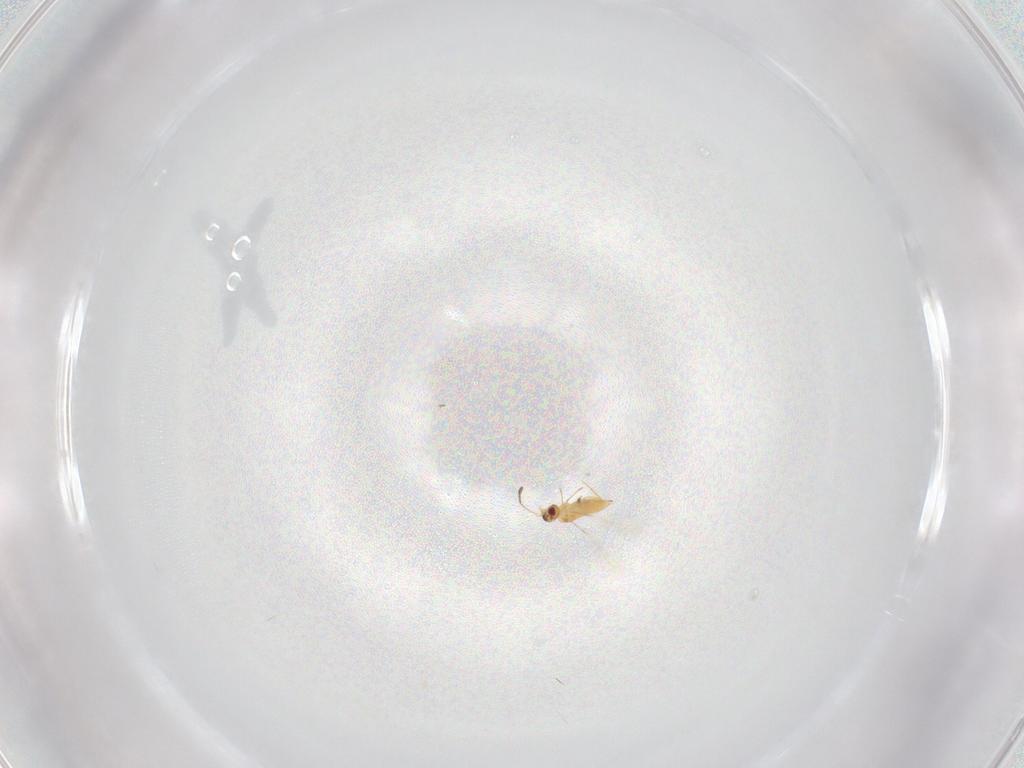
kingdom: Animalia
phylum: Arthropoda
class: Insecta
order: Hymenoptera
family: Mymaridae
